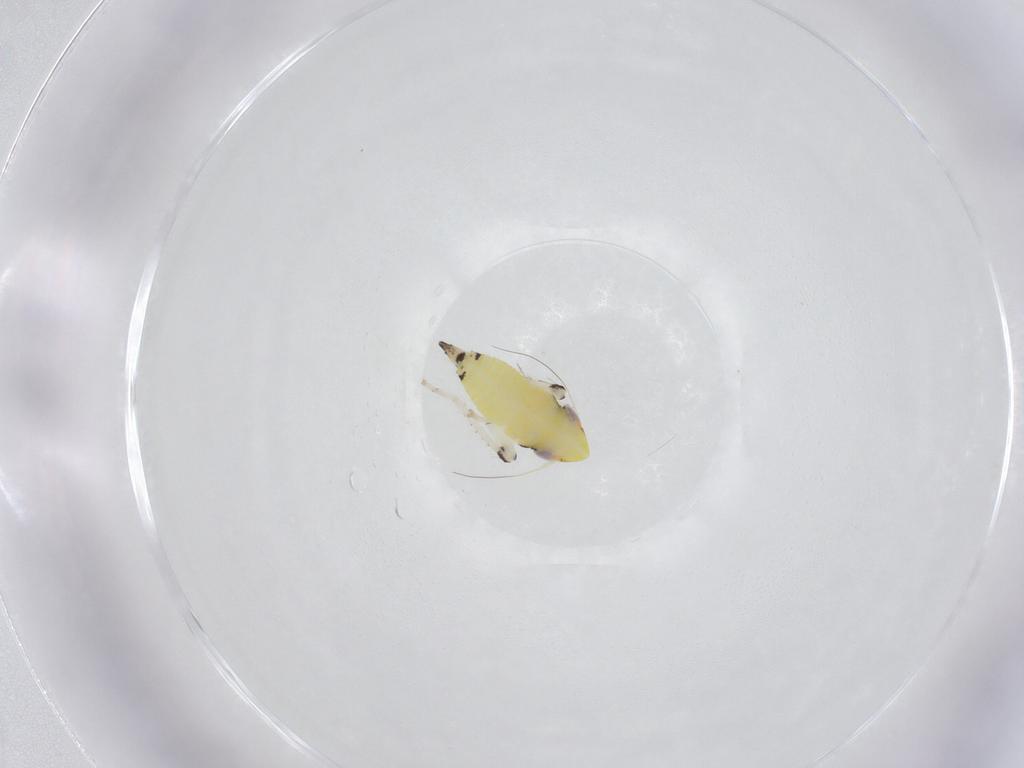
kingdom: Animalia
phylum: Arthropoda
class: Insecta
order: Hemiptera
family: Cicadellidae
